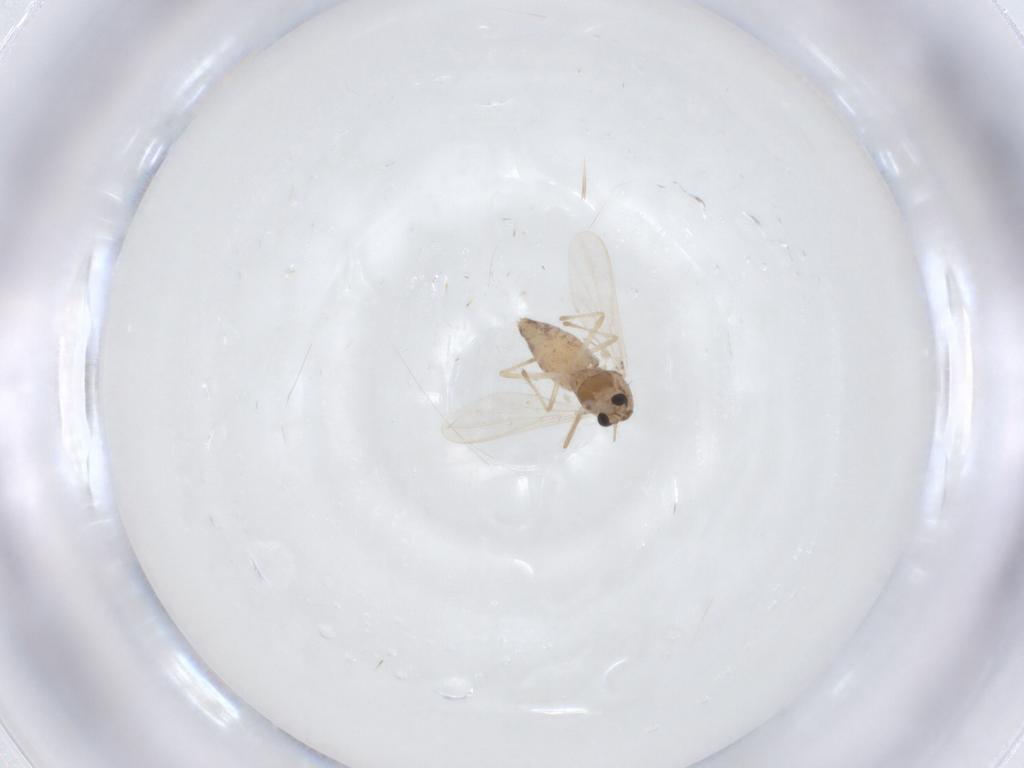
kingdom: Animalia
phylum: Arthropoda
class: Insecta
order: Diptera
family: Chironomidae
